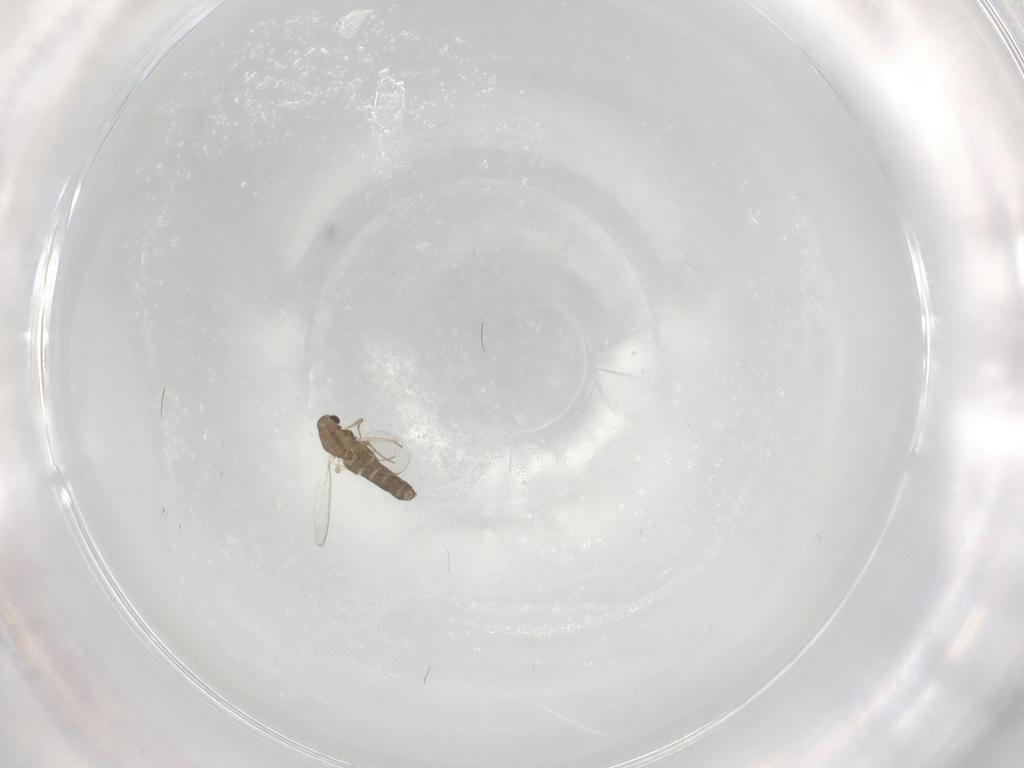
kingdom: Animalia
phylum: Arthropoda
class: Insecta
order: Diptera
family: Chironomidae
